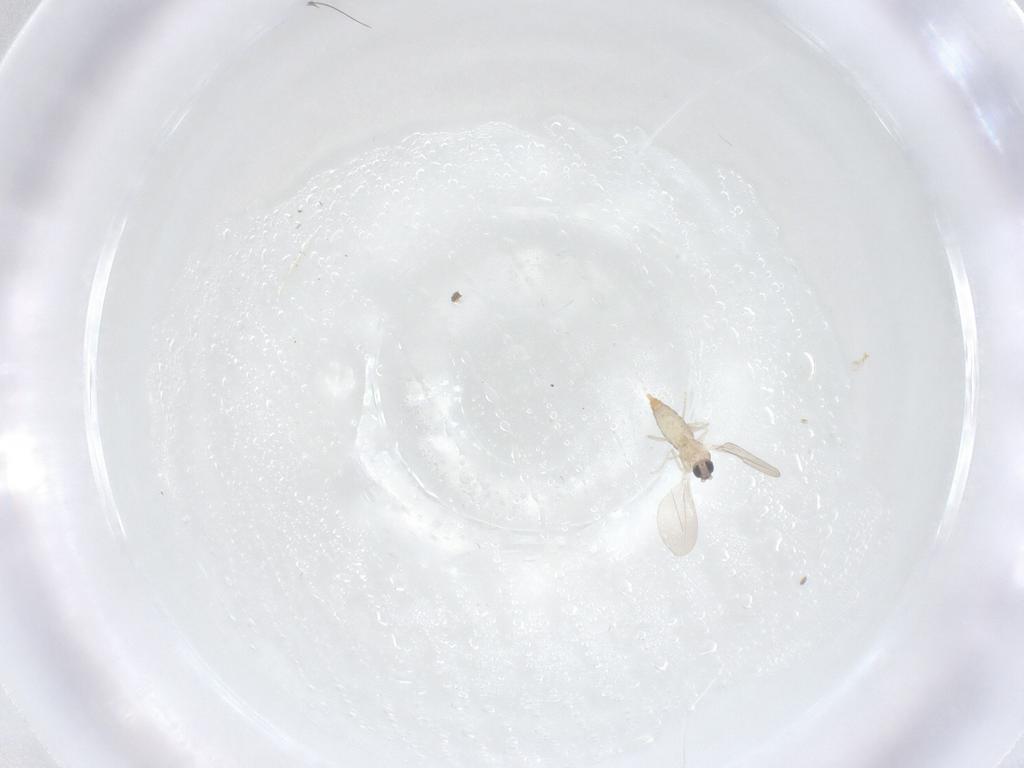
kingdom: Animalia
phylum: Arthropoda
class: Insecta
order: Diptera
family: Cecidomyiidae
